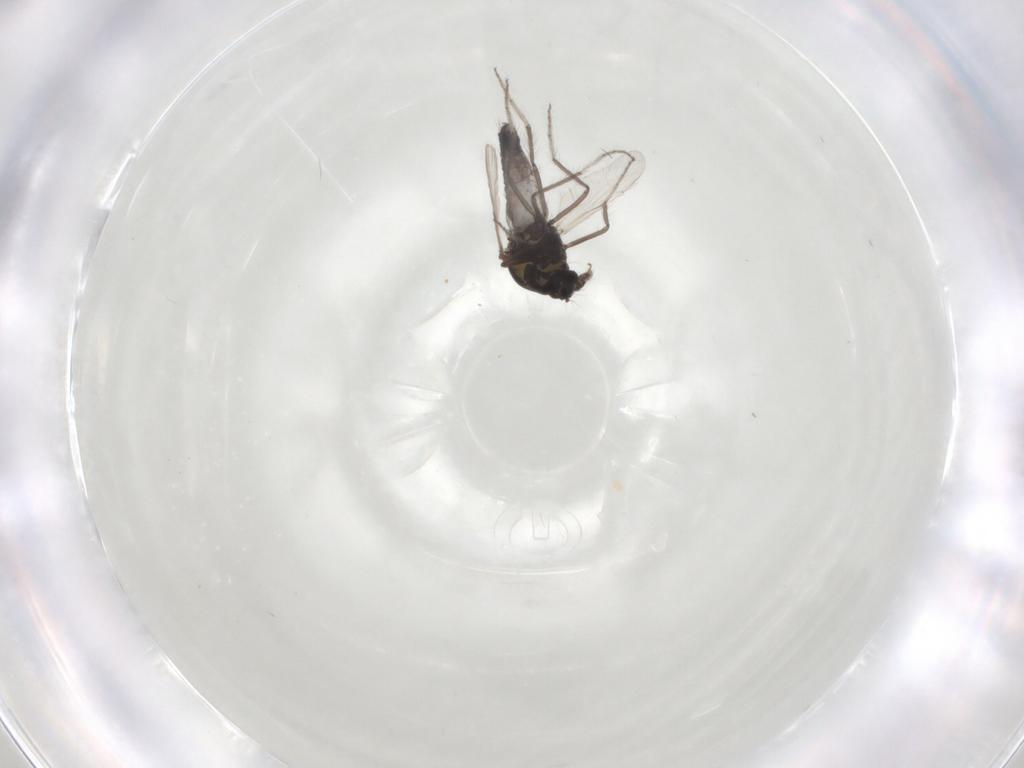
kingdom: Animalia
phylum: Arthropoda
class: Insecta
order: Diptera
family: Ceratopogonidae
